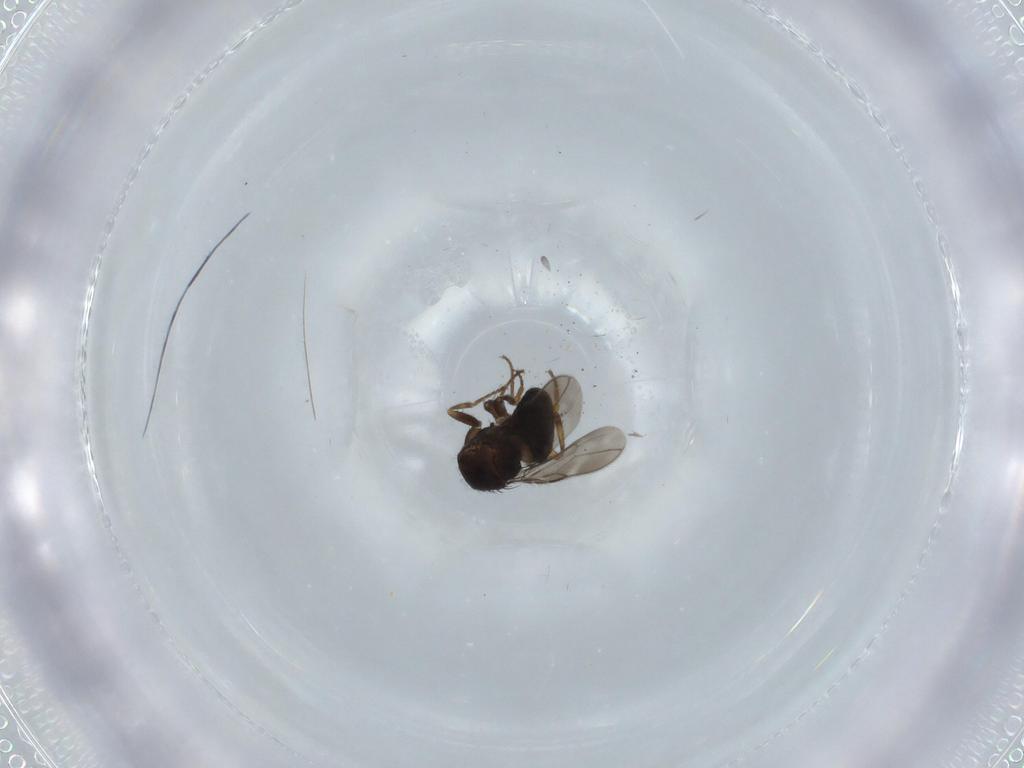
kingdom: Animalia
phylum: Arthropoda
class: Insecta
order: Diptera
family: Sphaeroceridae
